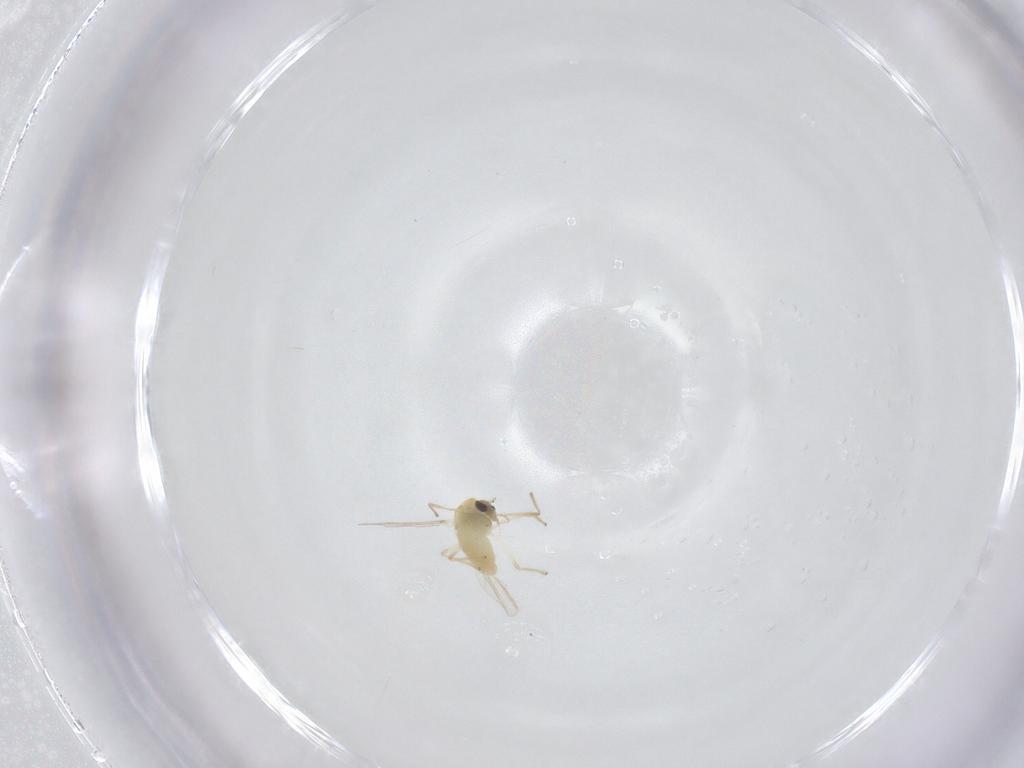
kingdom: Animalia
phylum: Arthropoda
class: Insecta
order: Diptera
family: Chironomidae
